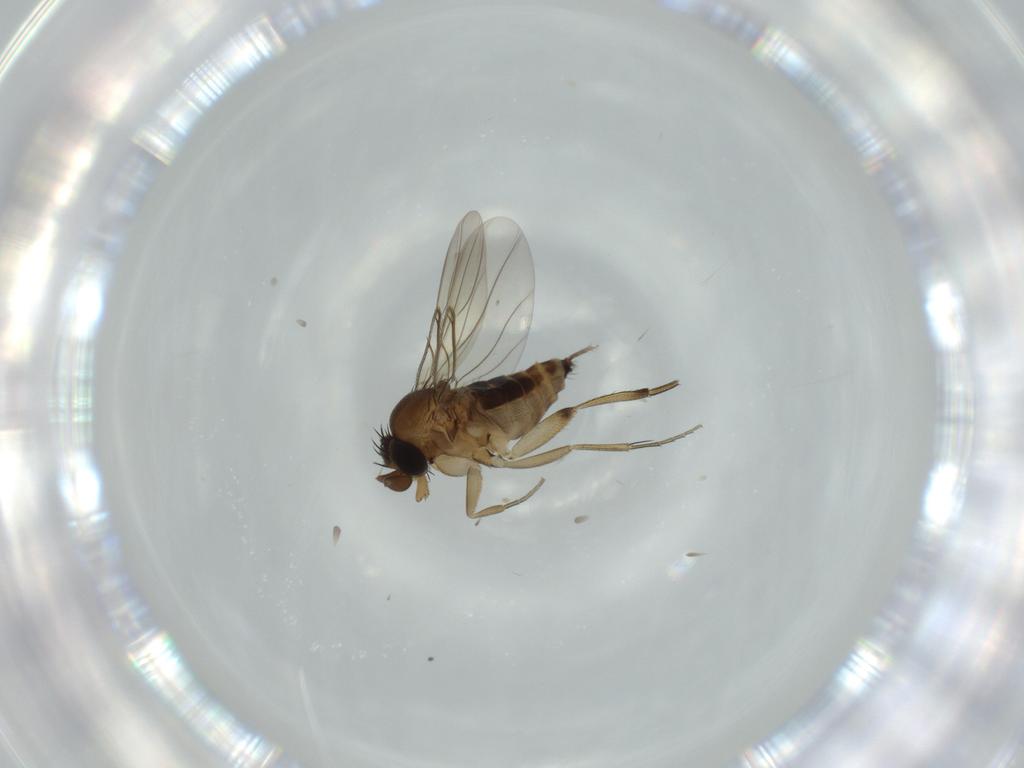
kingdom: Animalia
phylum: Arthropoda
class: Insecta
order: Diptera
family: Phoridae
